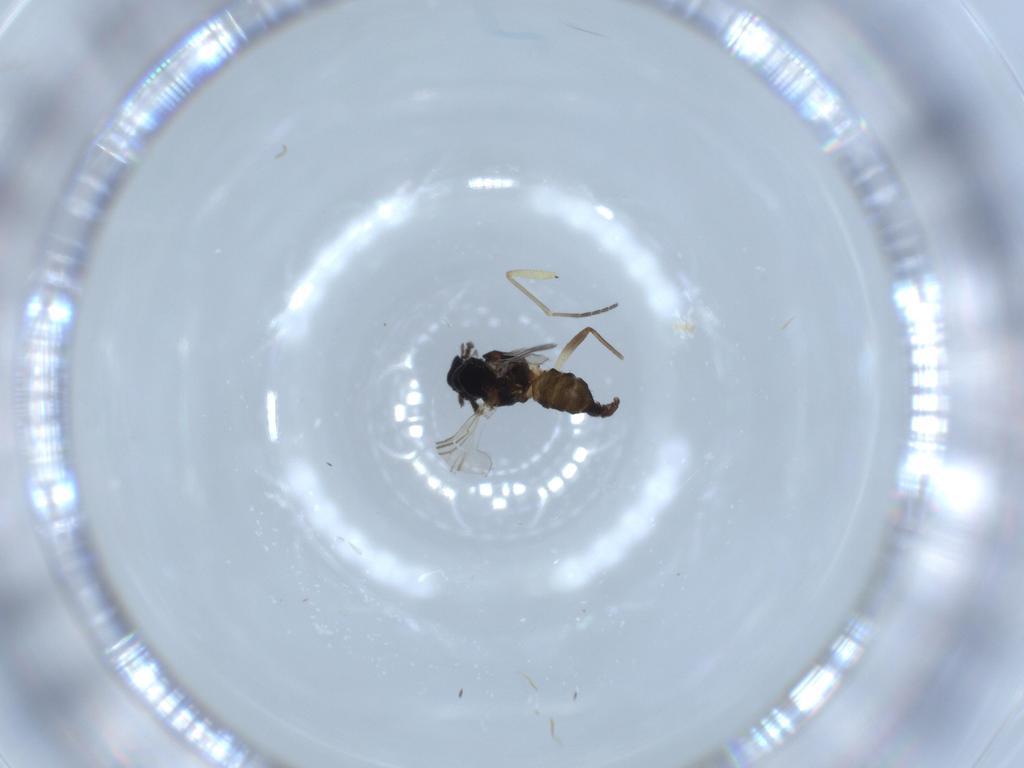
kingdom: Animalia
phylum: Arthropoda
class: Insecta
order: Diptera
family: Sciaridae
